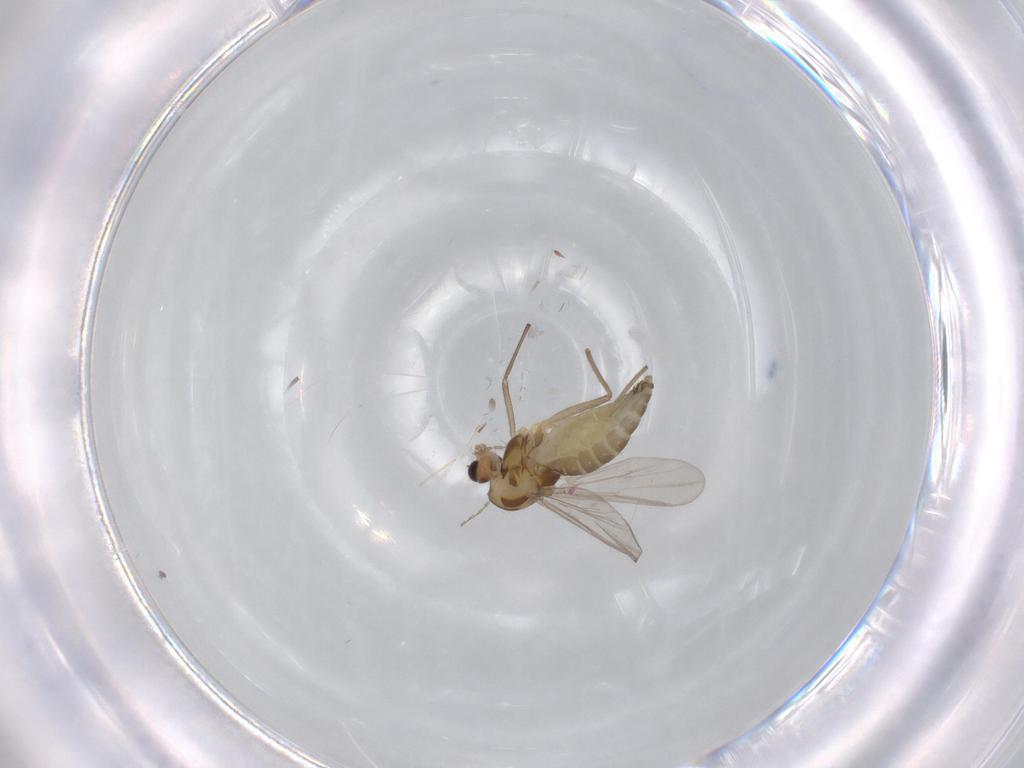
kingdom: Animalia
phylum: Arthropoda
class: Insecta
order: Diptera
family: Chironomidae
